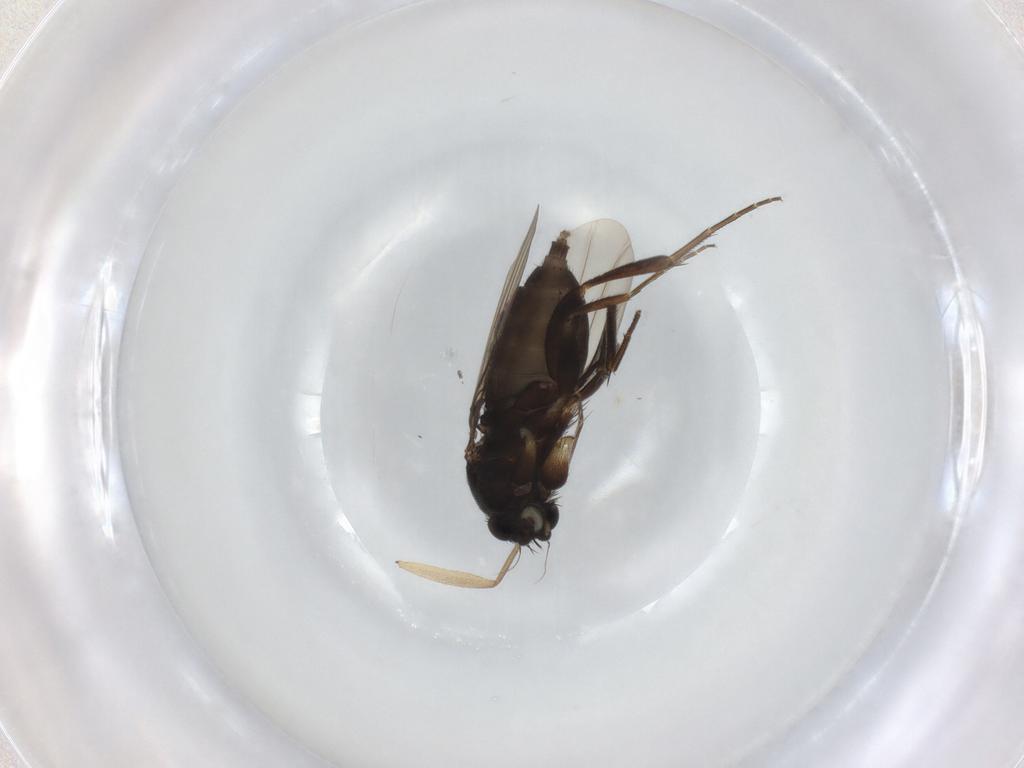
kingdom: Animalia
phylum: Arthropoda
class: Insecta
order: Diptera
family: Phoridae
